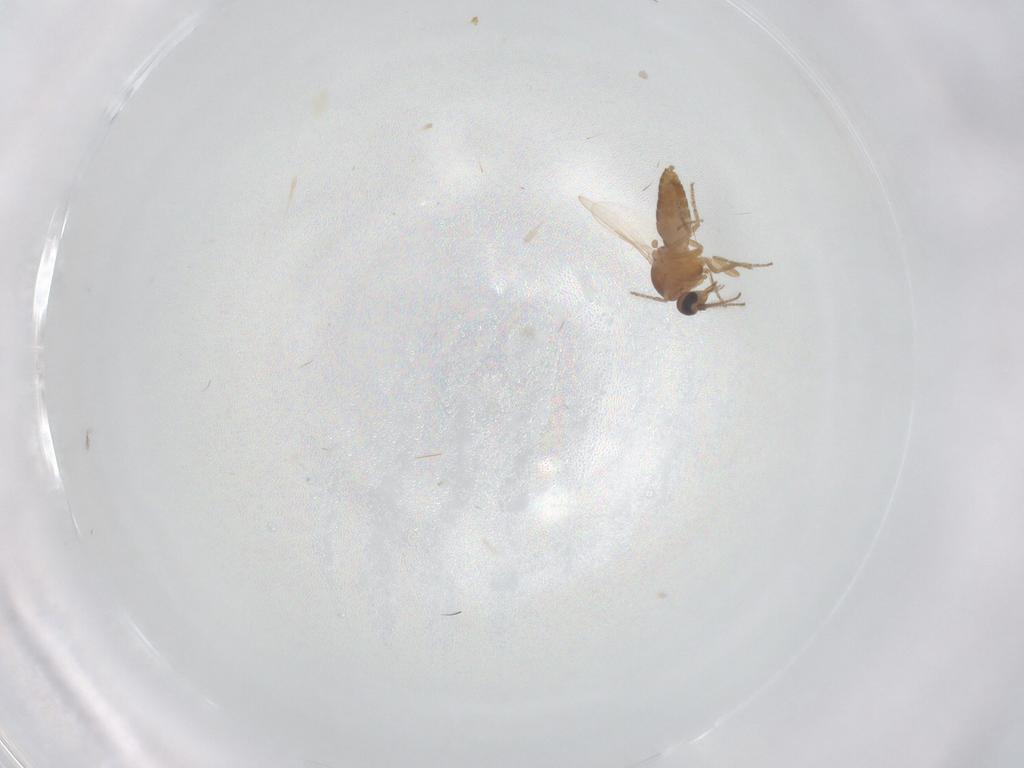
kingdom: Animalia
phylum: Arthropoda
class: Insecta
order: Diptera
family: Ceratopogonidae
